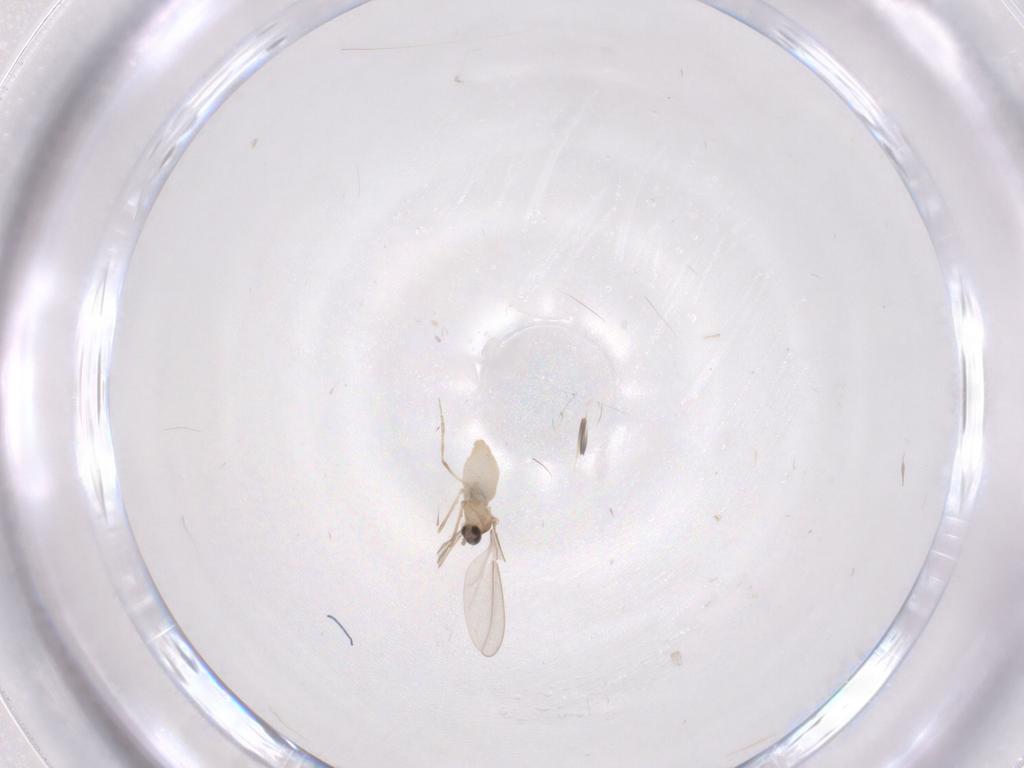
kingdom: Animalia
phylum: Arthropoda
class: Insecta
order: Diptera
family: Cecidomyiidae
